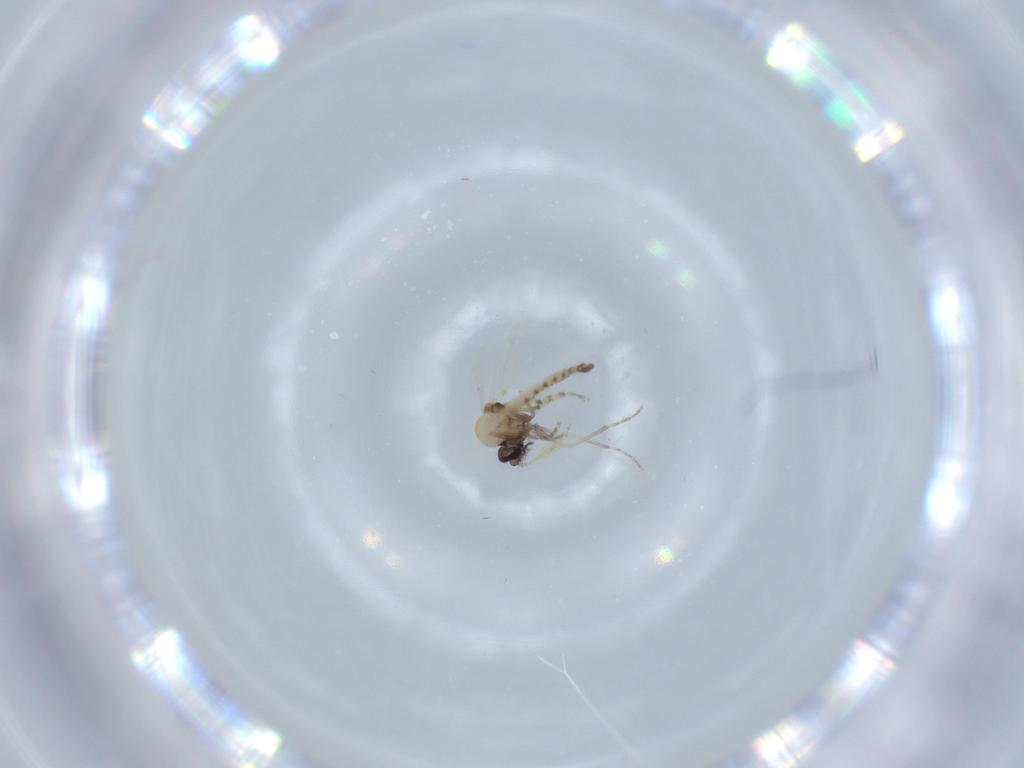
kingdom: Animalia
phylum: Arthropoda
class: Insecta
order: Diptera
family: Ceratopogonidae
